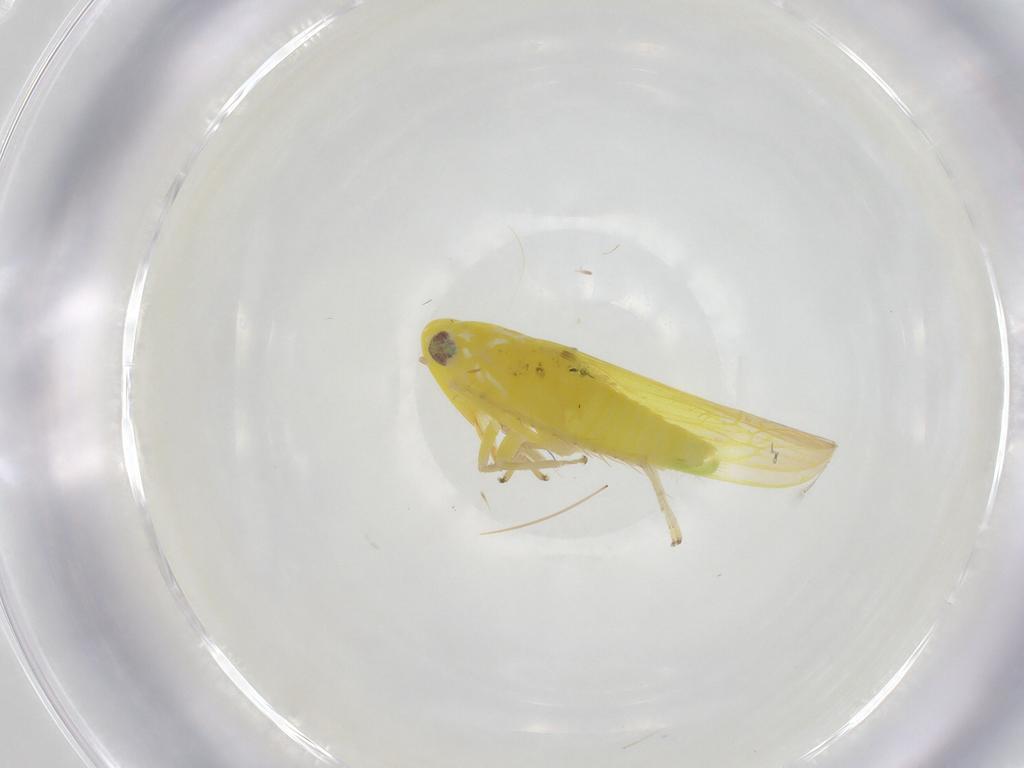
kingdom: Animalia
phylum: Arthropoda
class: Insecta
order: Hemiptera
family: Cicadellidae
